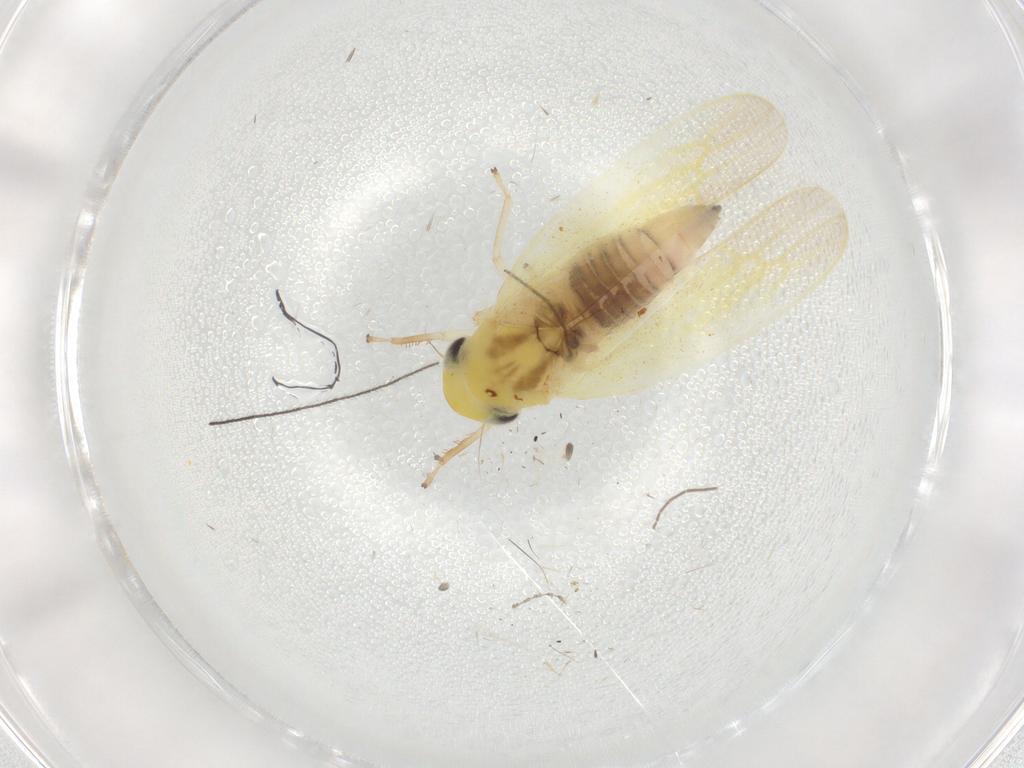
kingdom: Animalia
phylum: Arthropoda
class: Insecta
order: Hemiptera
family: Cicadellidae
